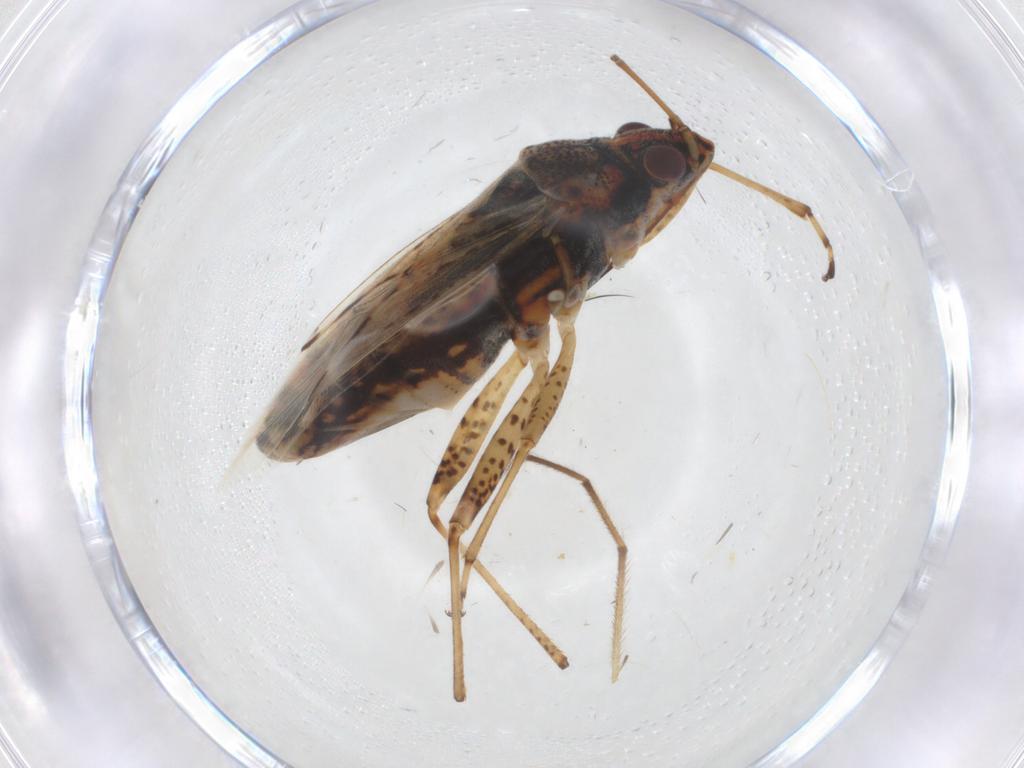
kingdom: Animalia
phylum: Arthropoda
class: Insecta
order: Hemiptera
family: Lygaeidae
